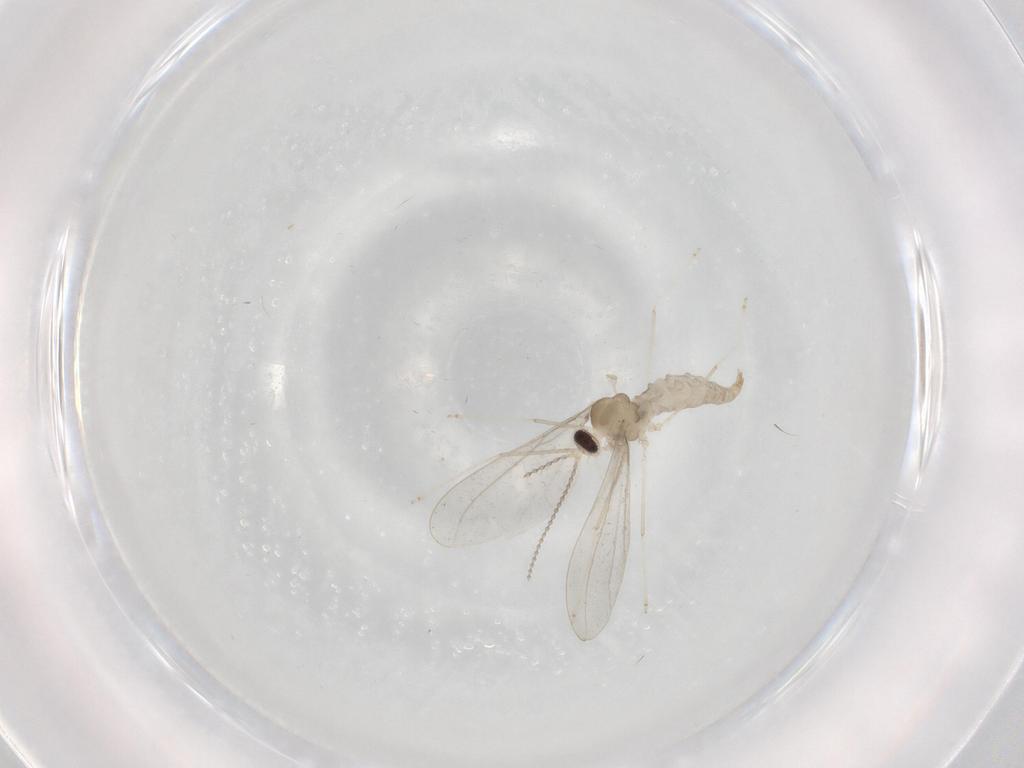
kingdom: Animalia
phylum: Arthropoda
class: Insecta
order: Diptera
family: Cecidomyiidae
